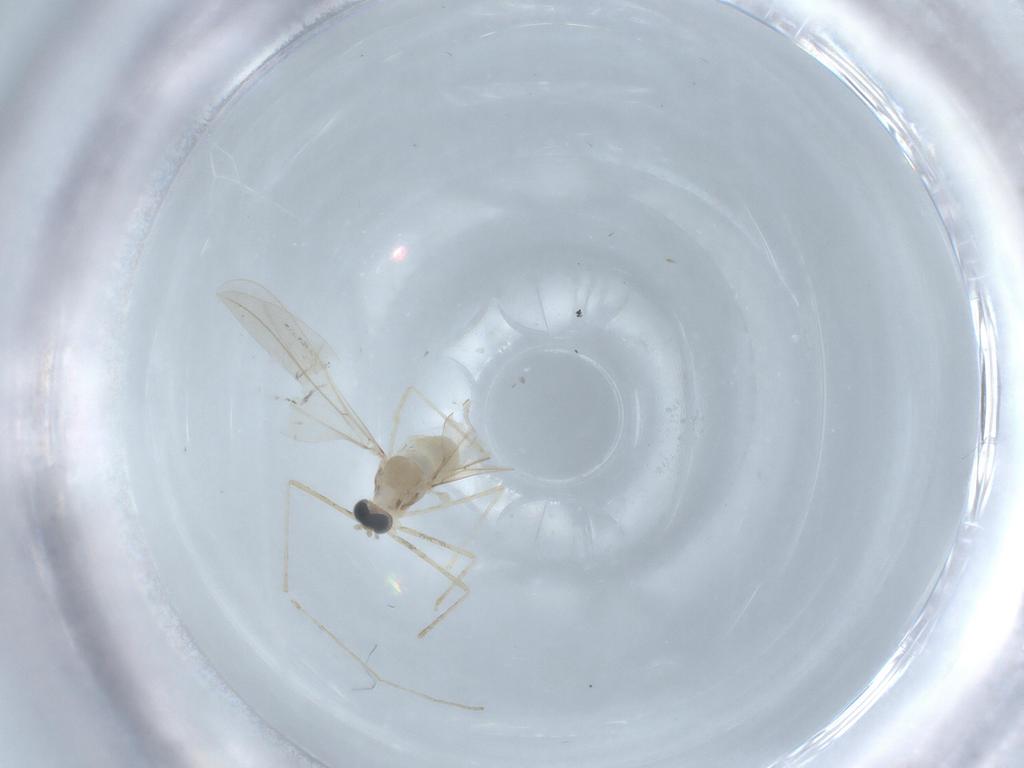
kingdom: Animalia
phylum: Arthropoda
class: Insecta
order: Diptera
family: Cecidomyiidae
